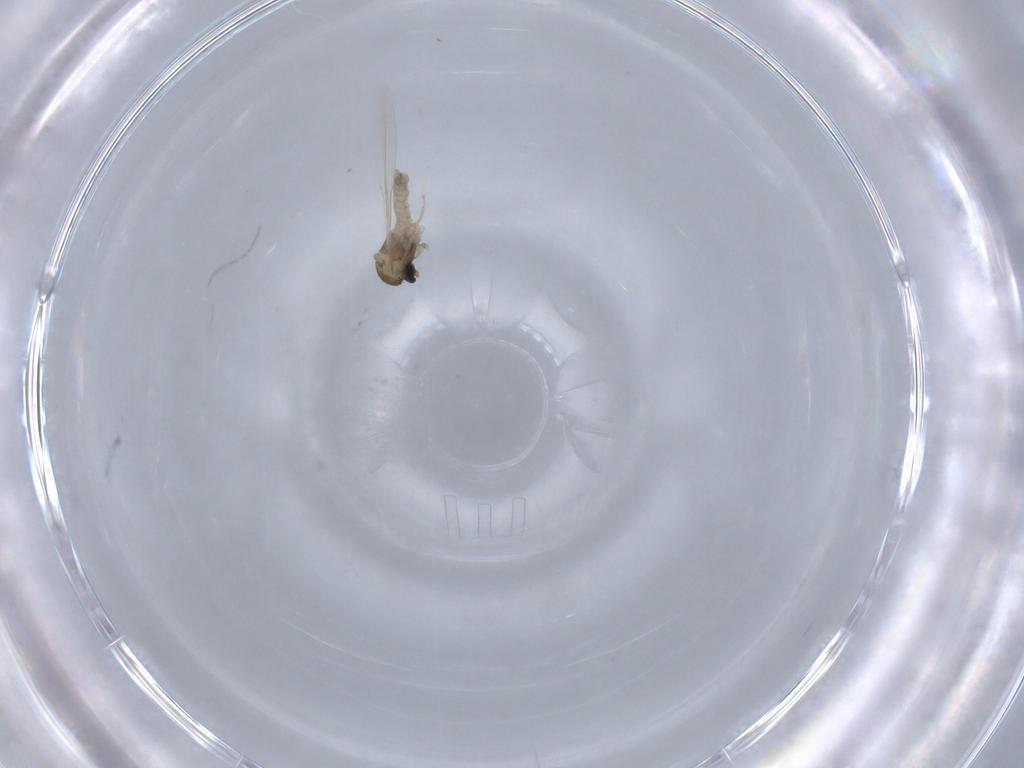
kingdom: Animalia
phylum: Arthropoda
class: Insecta
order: Diptera
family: Cecidomyiidae
